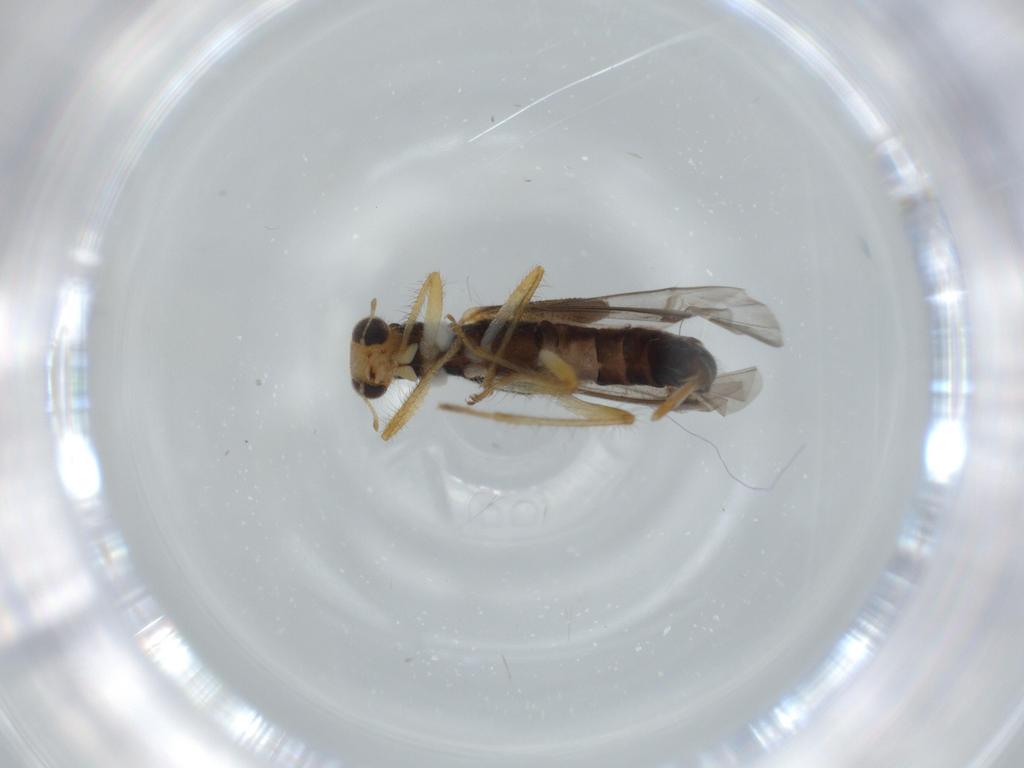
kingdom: Animalia
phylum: Arthropoda
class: Insecta
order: Coleoptera
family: Cleridae
